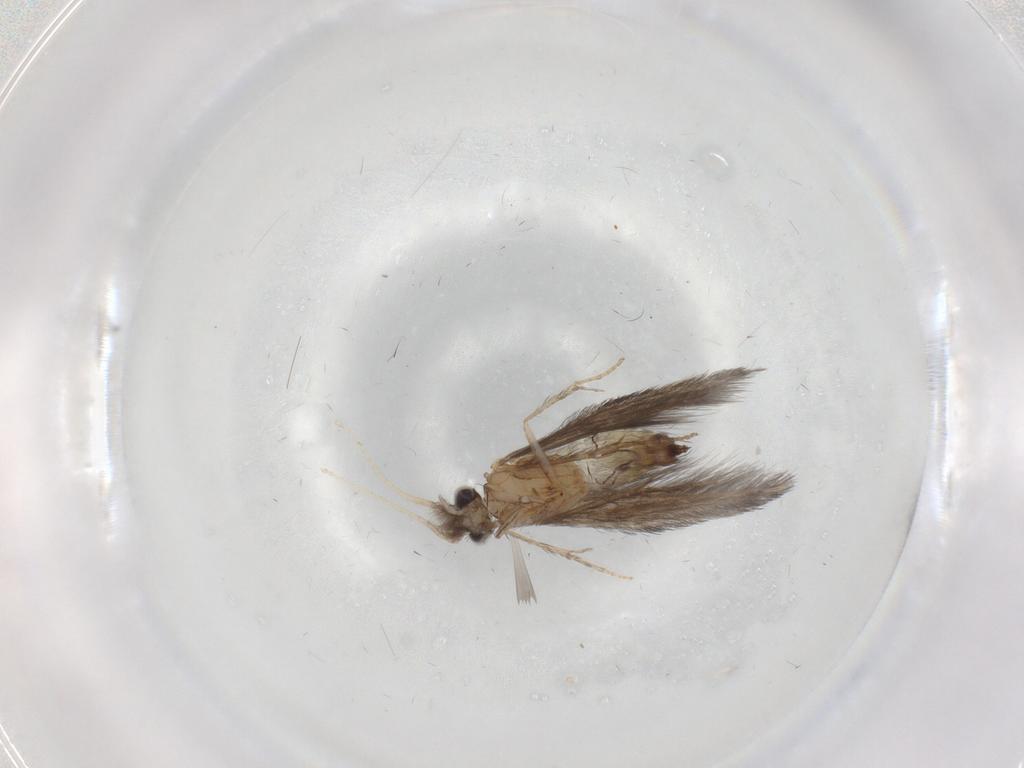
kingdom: Animalia
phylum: Arthropoda
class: Insecta
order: Trichoptera
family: Hydroptilidae
